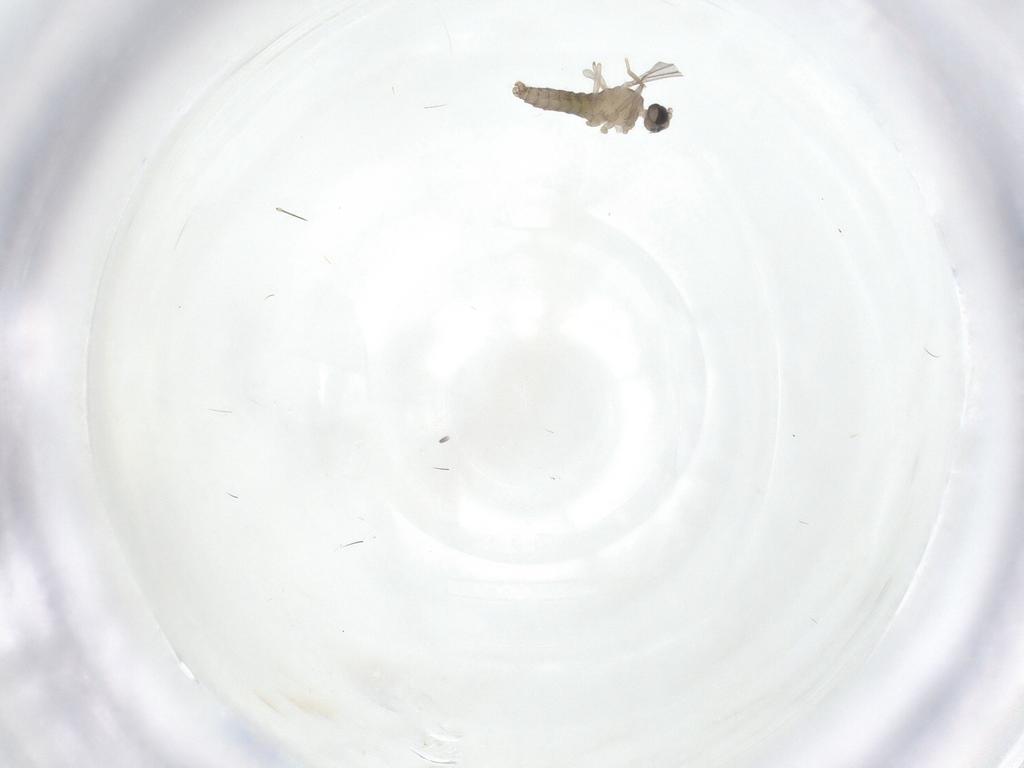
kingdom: Animalia
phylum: Arthropoda
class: Insecta
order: Diptera
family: Cecidomyiidae
